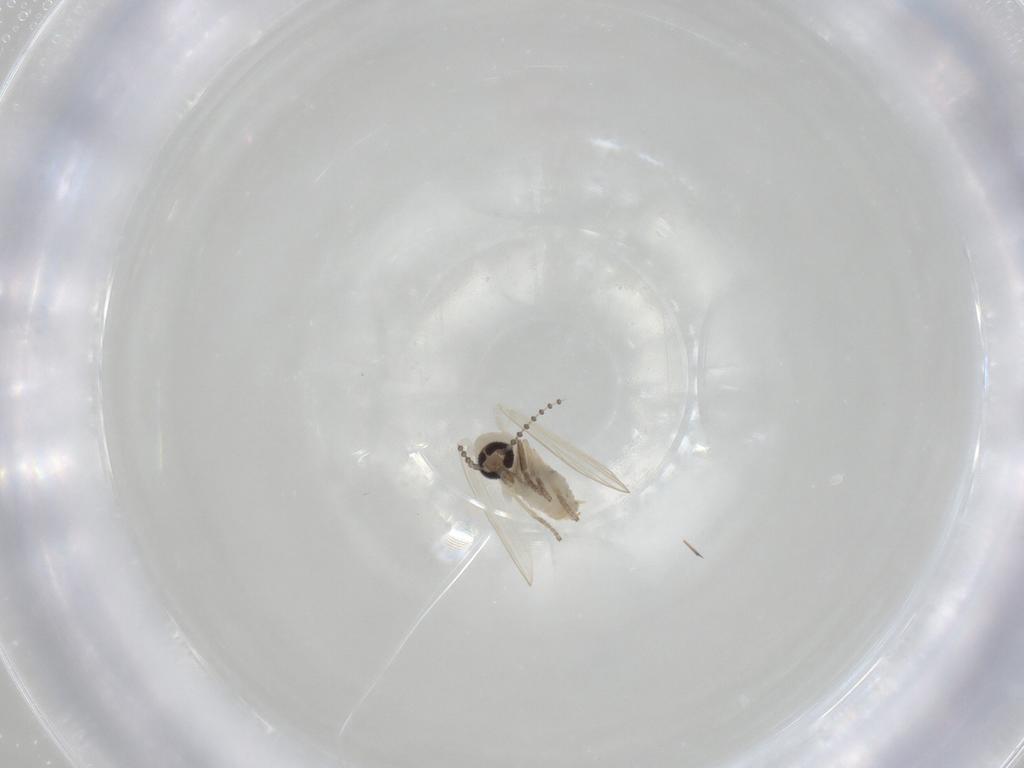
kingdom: Animalia
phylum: Arthropoda
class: Insecta
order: Diptera
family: Psychodidae
